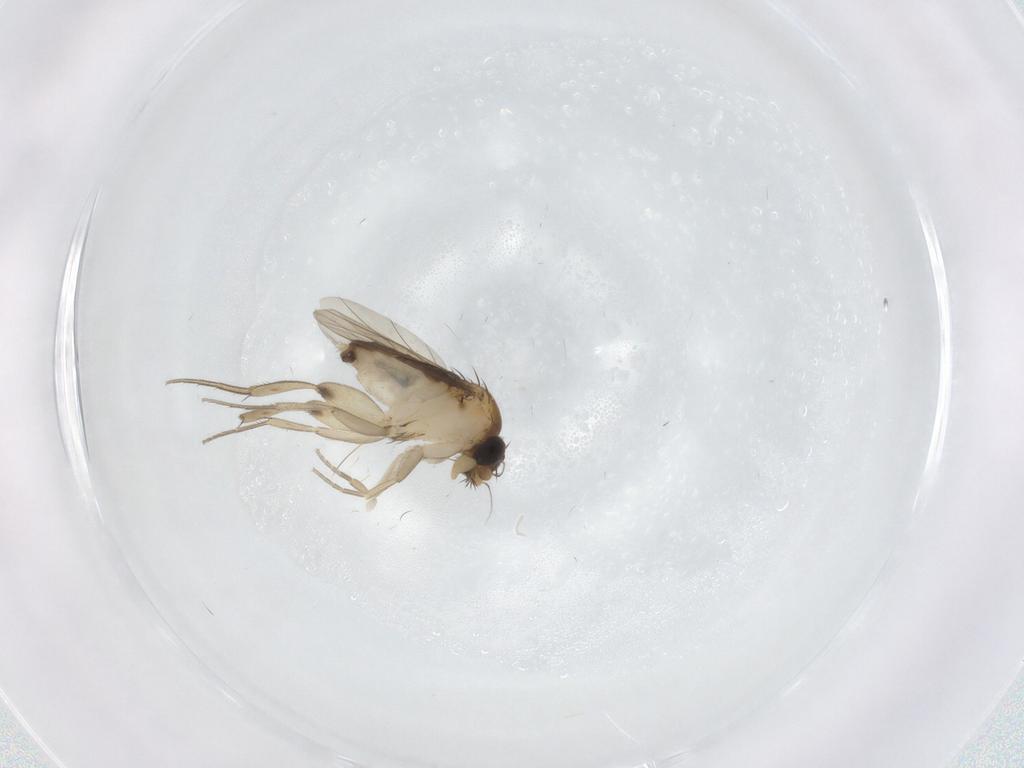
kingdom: Animalia
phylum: Arthropoda
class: Insecta
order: Diptera
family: Phoridae
